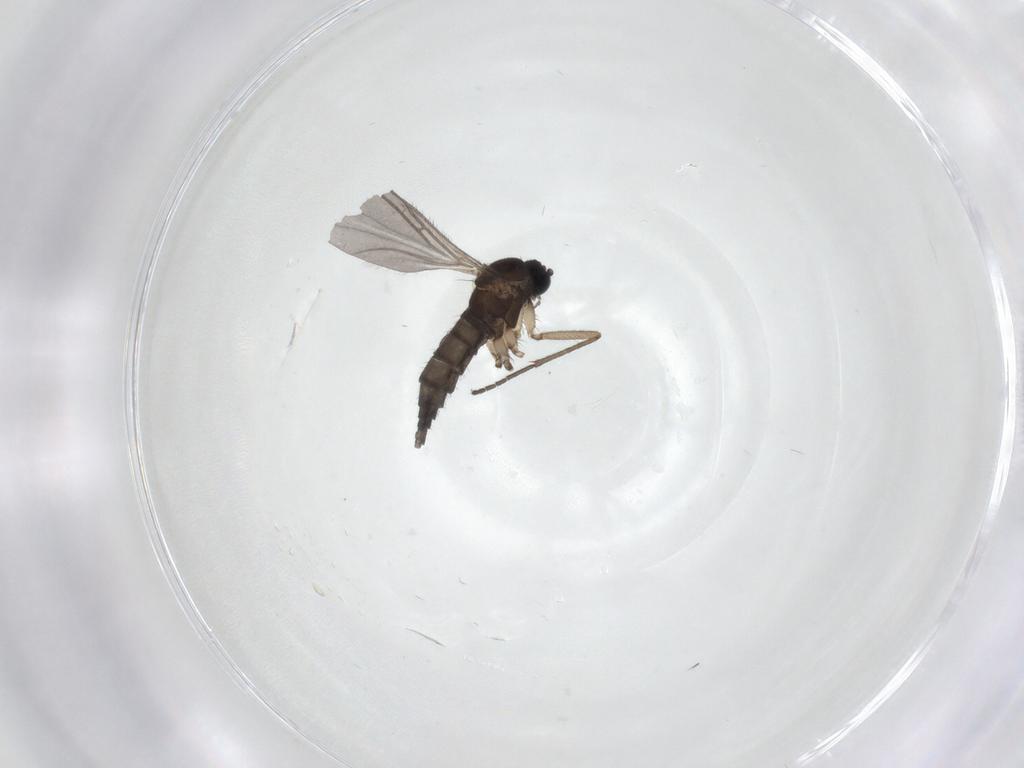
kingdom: Animalia
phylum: Arthropoda
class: Insecta
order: Diptera
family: Sciaridae
